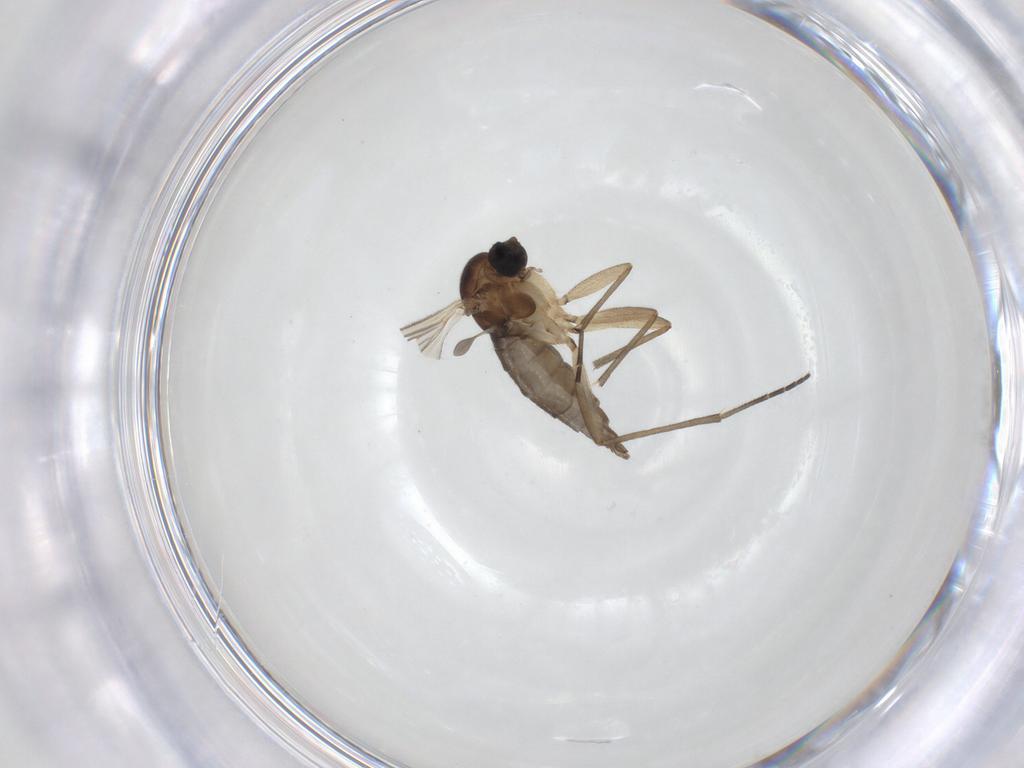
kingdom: Animalia
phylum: Arthropoda
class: Insecta
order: Diptera
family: Sciaridae
